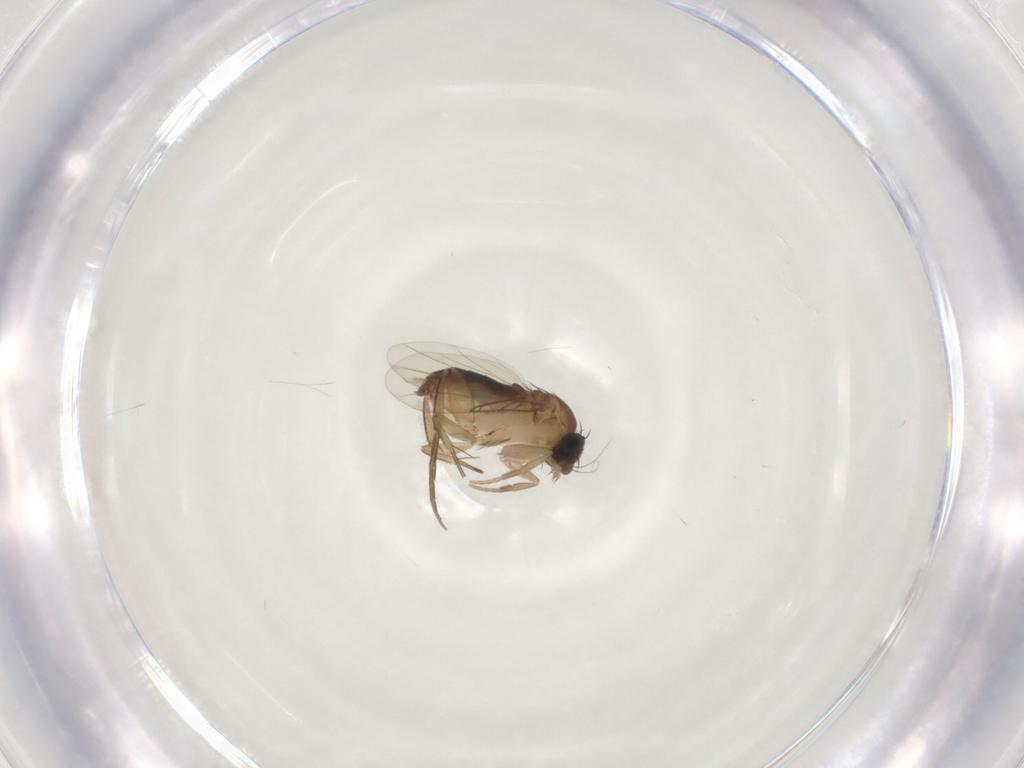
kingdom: Animalia
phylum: Arthropoda
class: Insecta
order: Diptera
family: Phoridae
